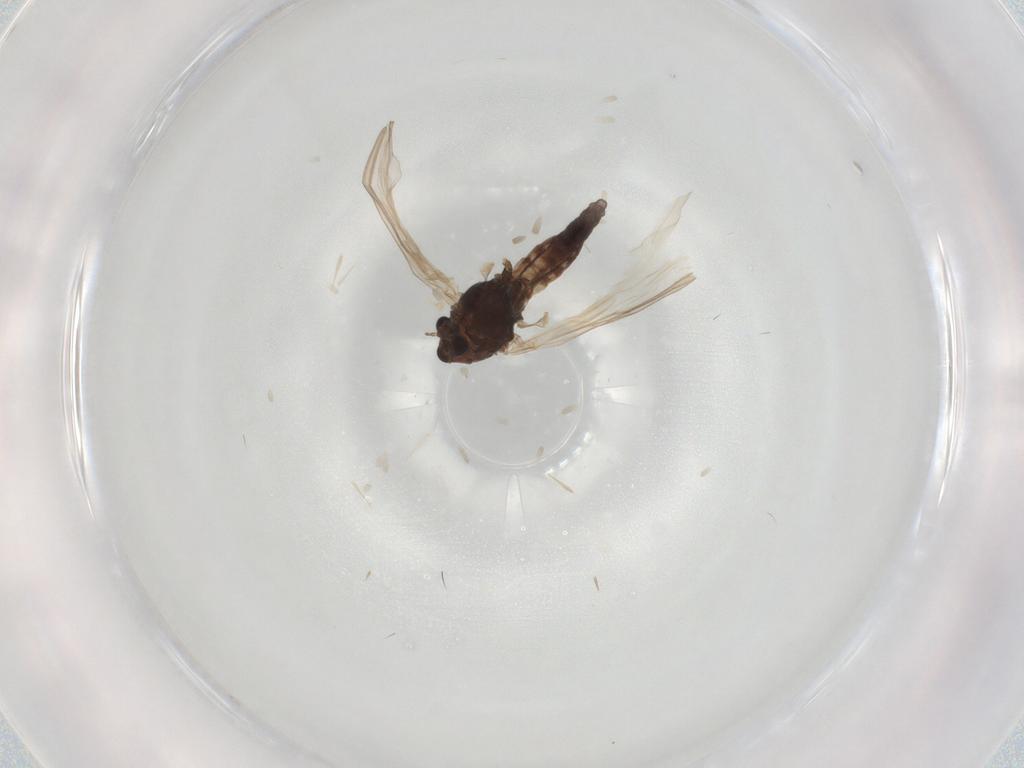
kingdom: Animalia
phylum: Arthropoda
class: Insecta
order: Diptera
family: Chironomidae
